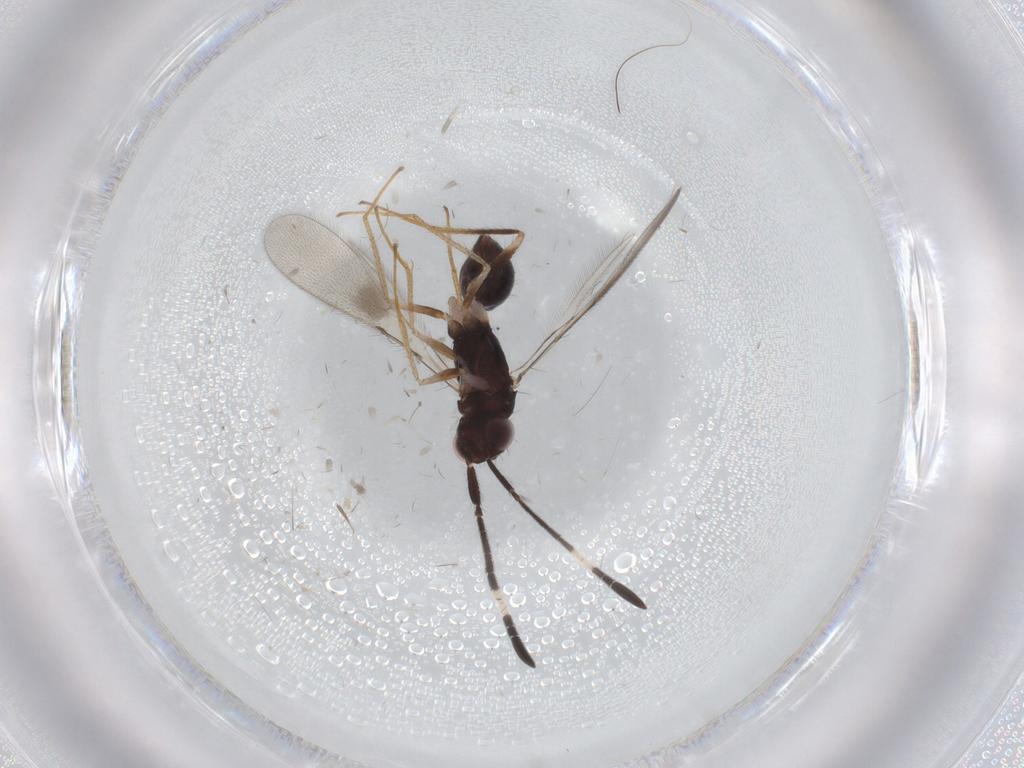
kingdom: Animalia
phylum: Arthropoda
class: Insecta
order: Hymenoptera
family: Mymaridae
